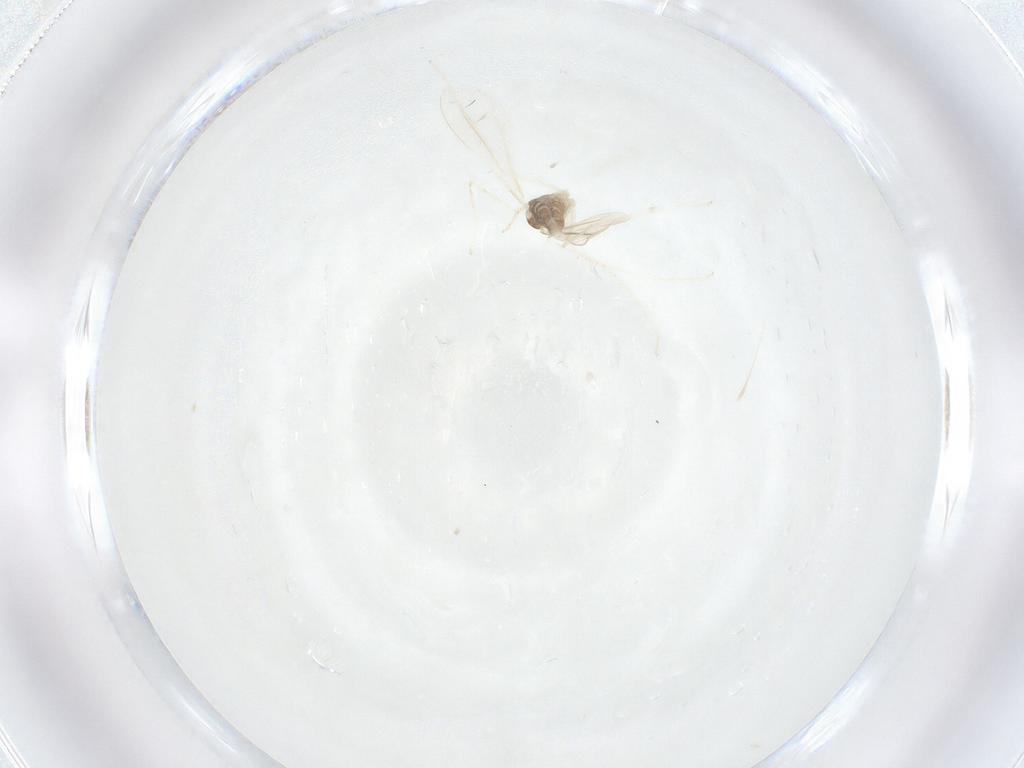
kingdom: Animalia
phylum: Arthropoda
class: Insecta
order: Diptera
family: Cecidomyiidae
